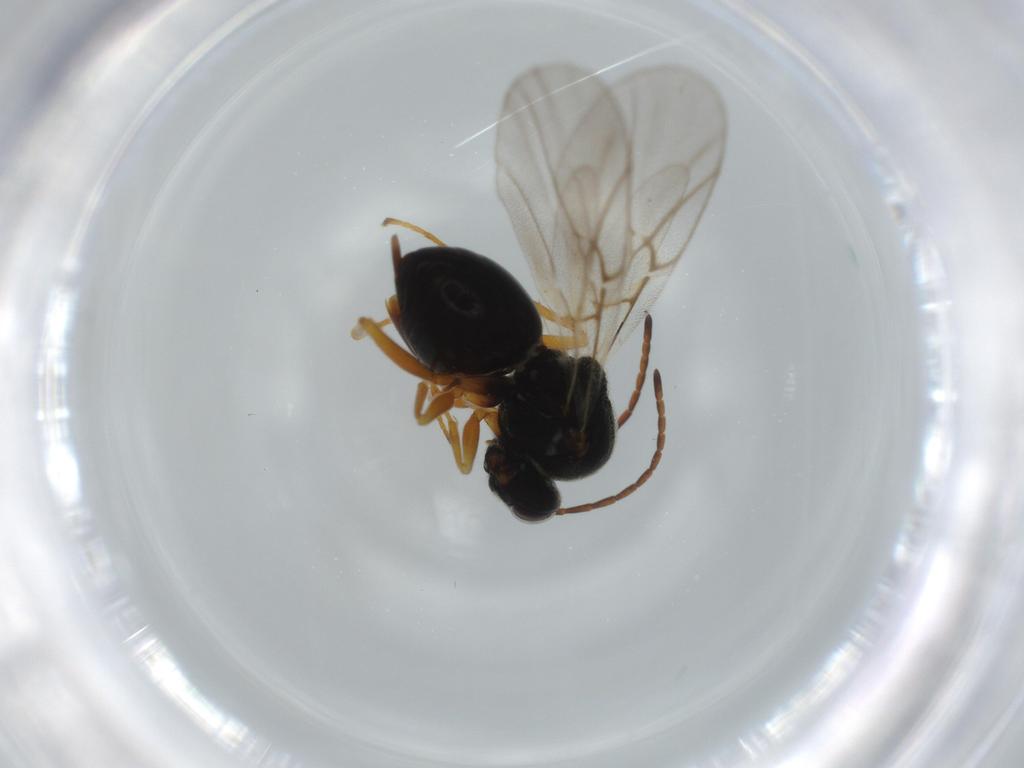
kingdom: Animalia
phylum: Arthropoda
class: Insecta
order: Hymenoptera
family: Cynipidae
